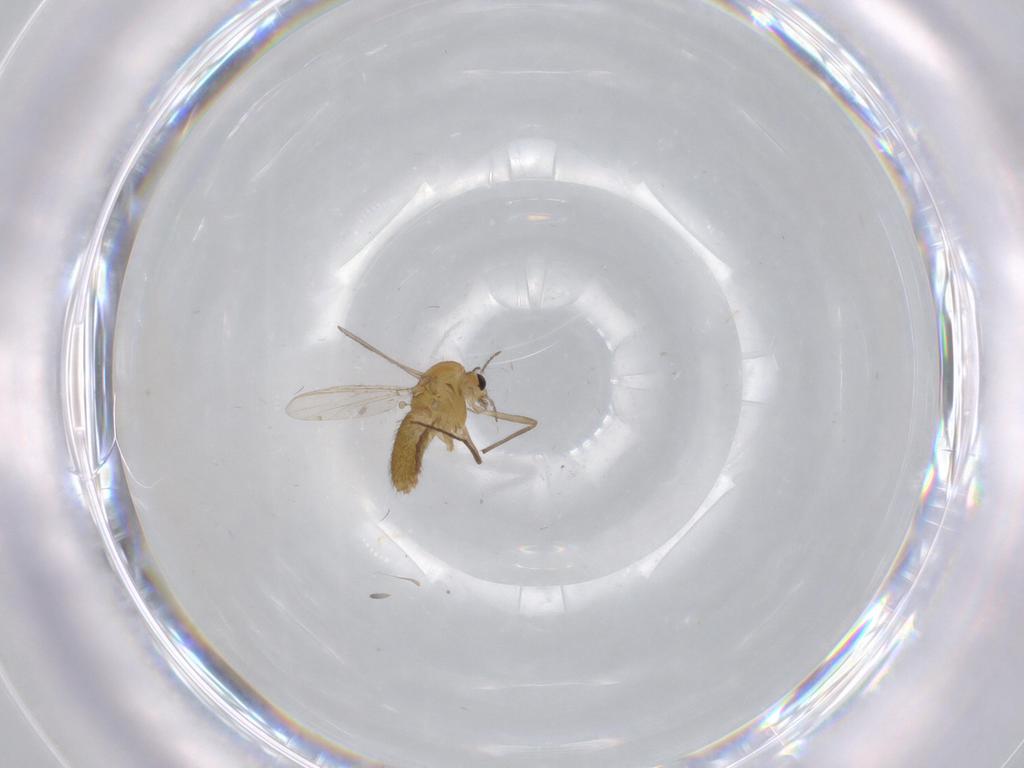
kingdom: Animalia
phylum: Arthropoda
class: Insecta
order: Diptera
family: Chironomidae
